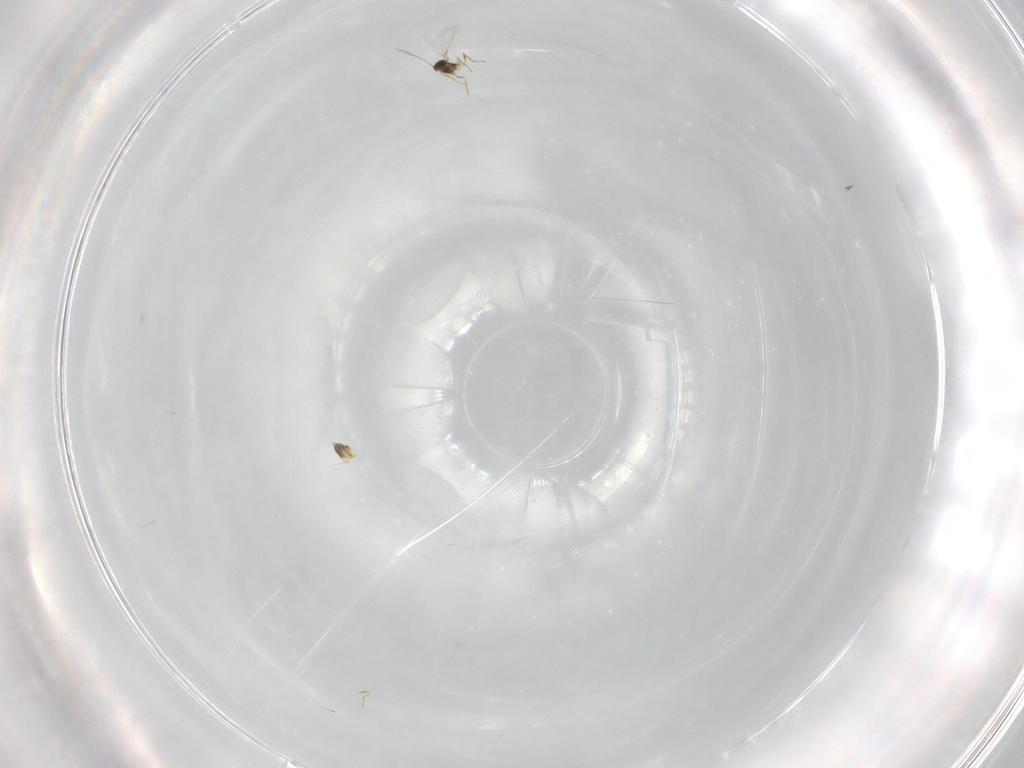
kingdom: Animalia
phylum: Arthropoda
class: Insecta
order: Hymenoptera
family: Mymaridae
